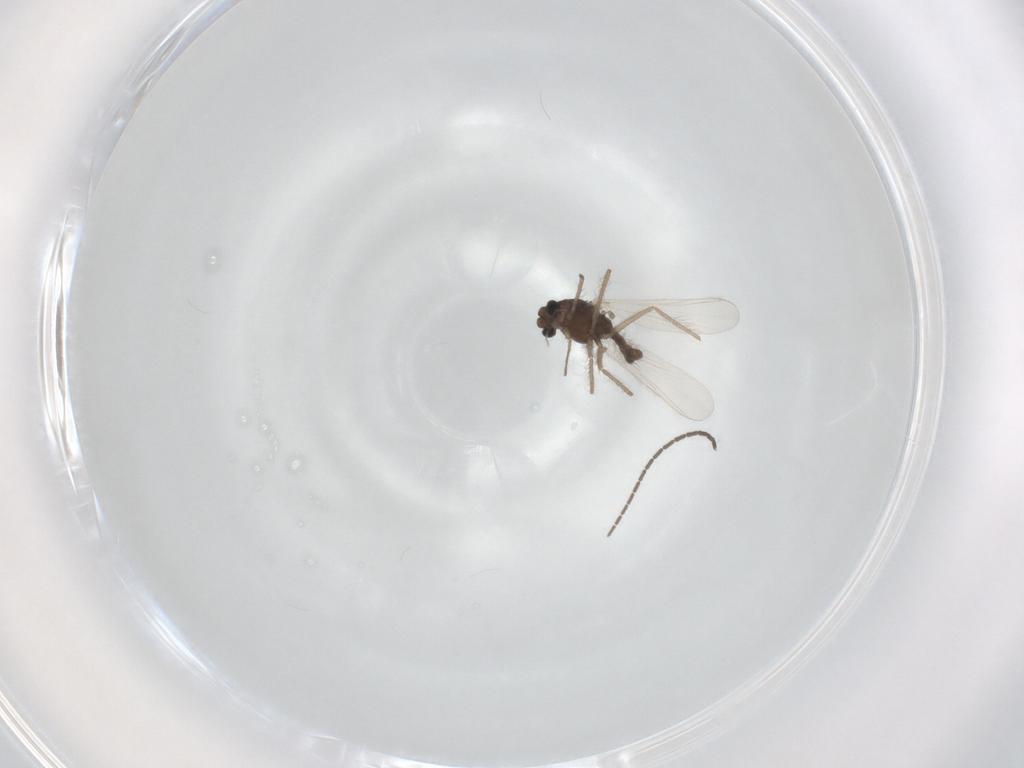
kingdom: Animalia
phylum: Arthropoda
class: Insecta
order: Diptera
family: Chironomidae
